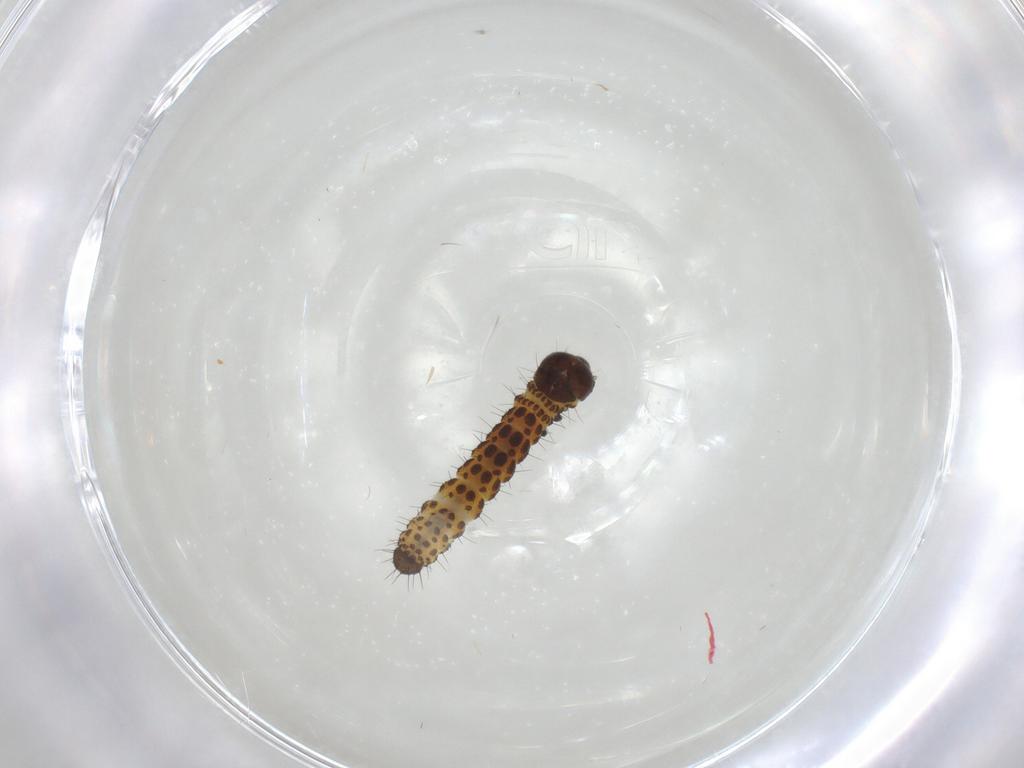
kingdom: Animalia
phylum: Arthropoda
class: Insecta
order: Lepidoptera
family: Noctuidae
